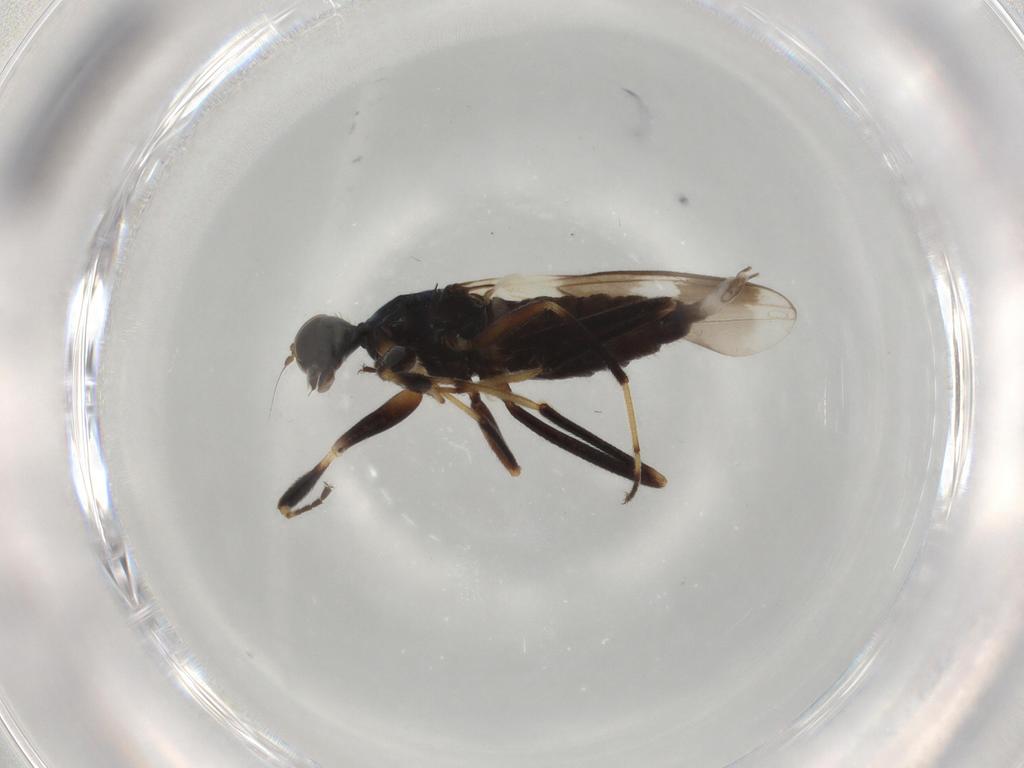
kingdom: Animalia
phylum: Arthropoda
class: Insecta
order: Diptera
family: Hybotidae
